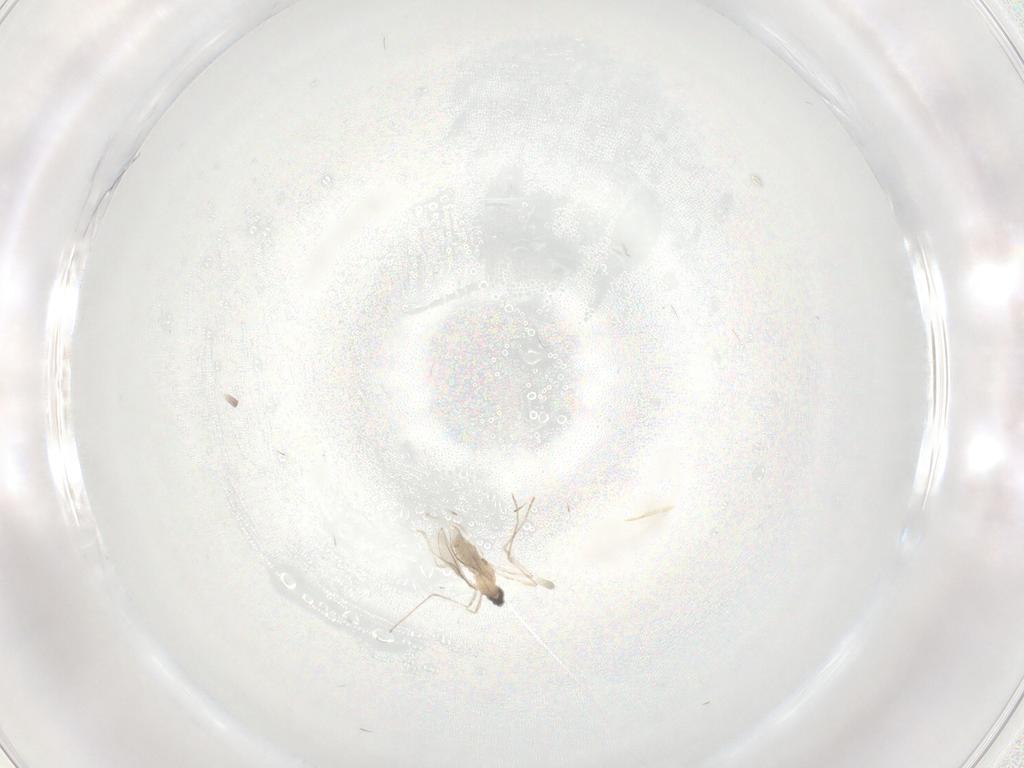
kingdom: Animalia
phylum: Arthropoda
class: Insecta
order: Diptera
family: Cecidomyiidae
